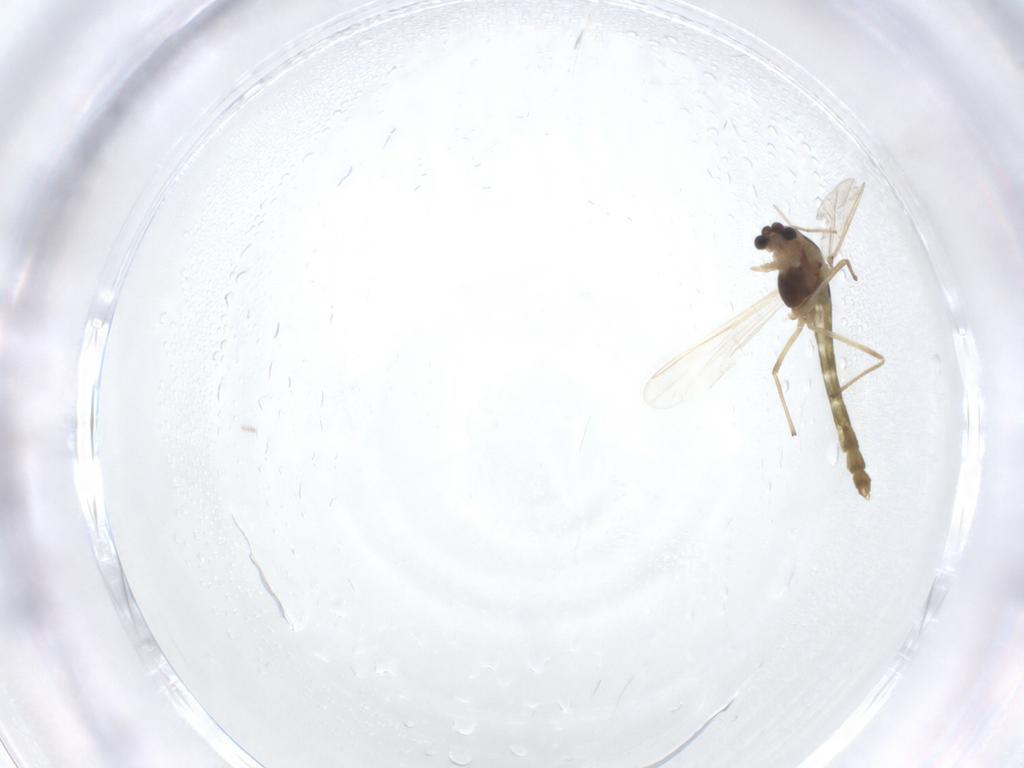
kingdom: Animalia
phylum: Arthropoda
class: Insecta
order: Diptera
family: Chironomidae
